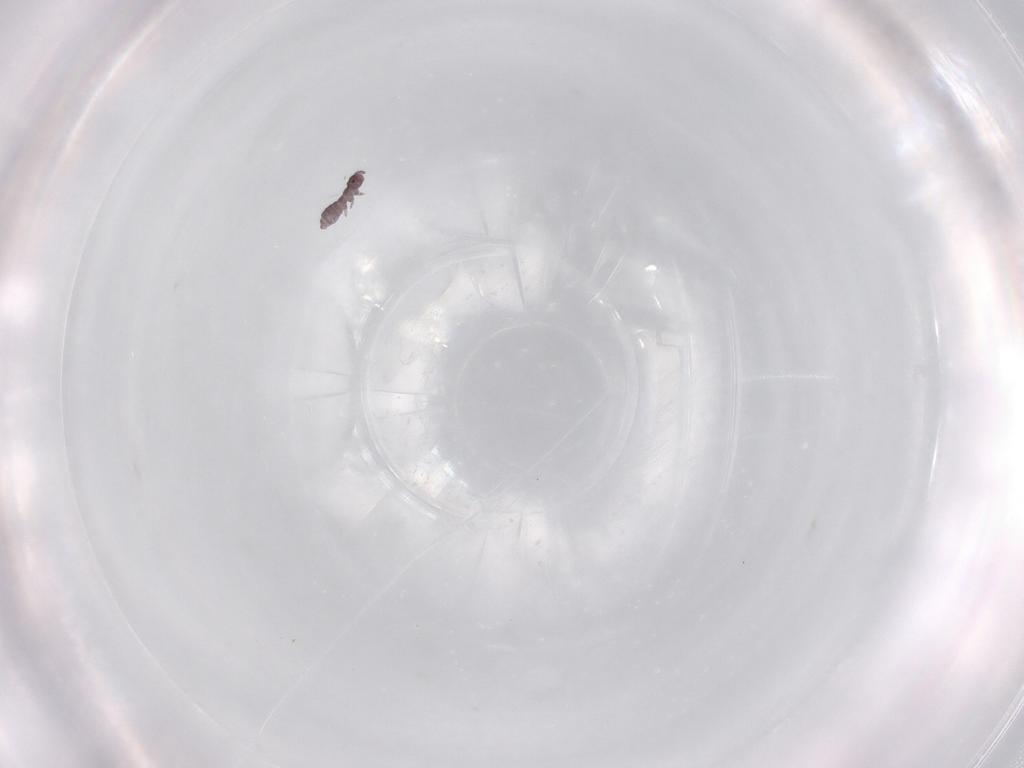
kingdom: Animalia
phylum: Arthropoda
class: Collembola
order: Poduromorpha
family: Hypogastruridae
